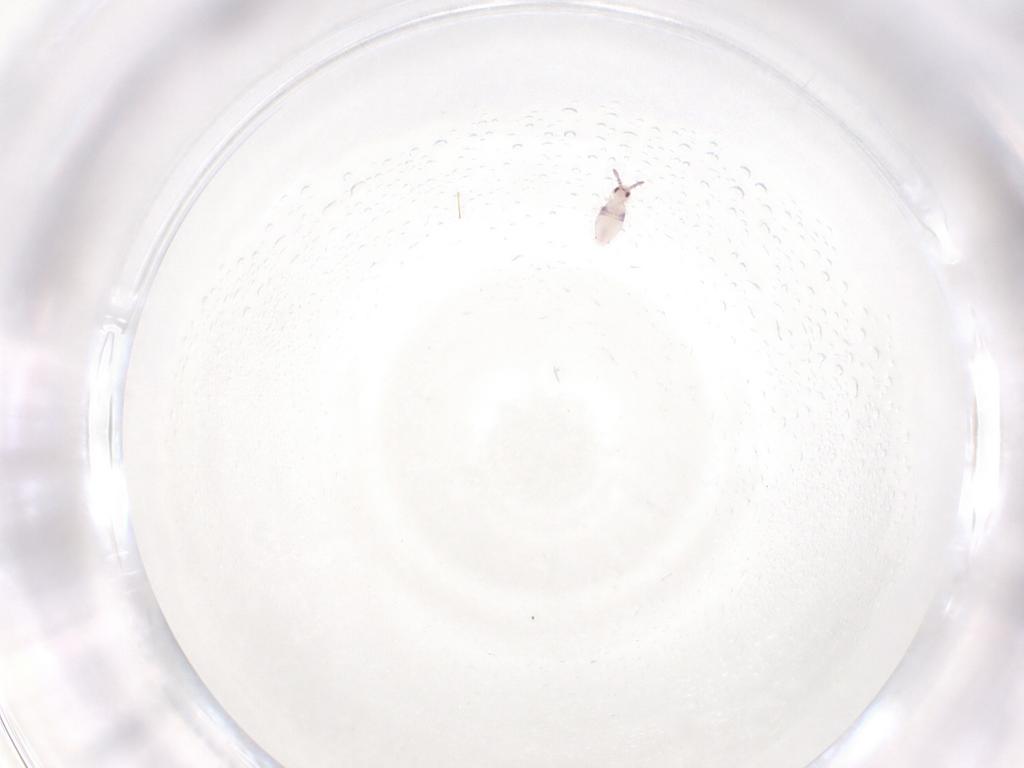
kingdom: Animalia
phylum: Arthropoda
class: Collembola
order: Entomobryomorpha
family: Entomobryidae
